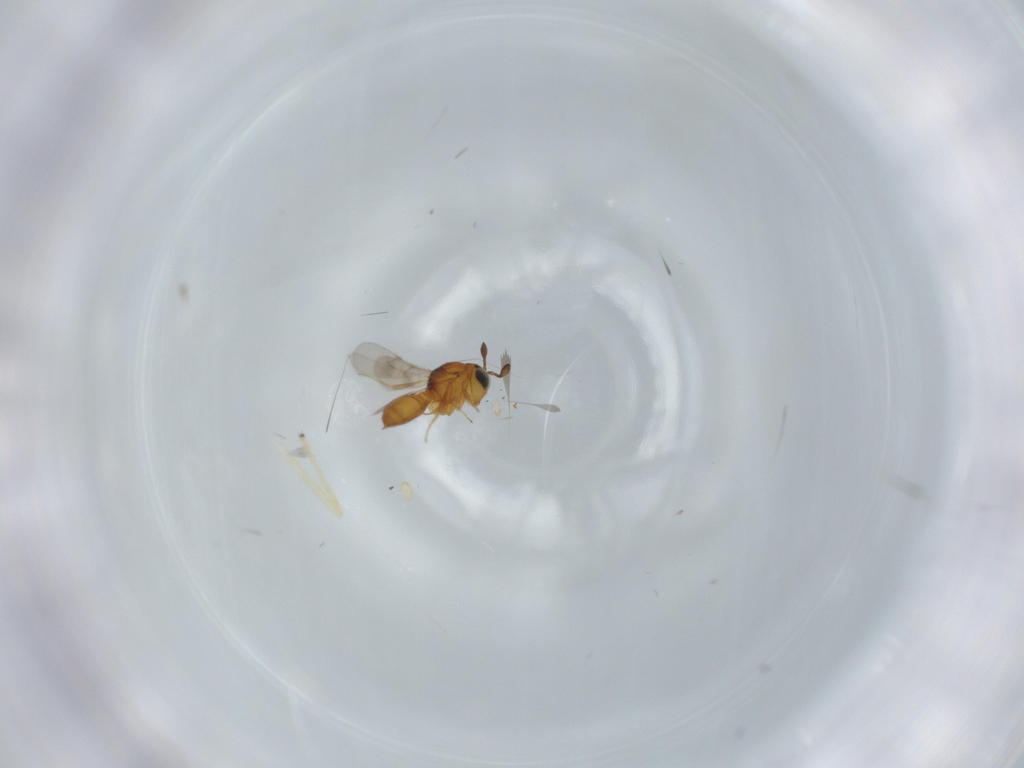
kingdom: Animalia
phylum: Arthropoda
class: Insecta
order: Hymenoptera
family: Scelionidae
